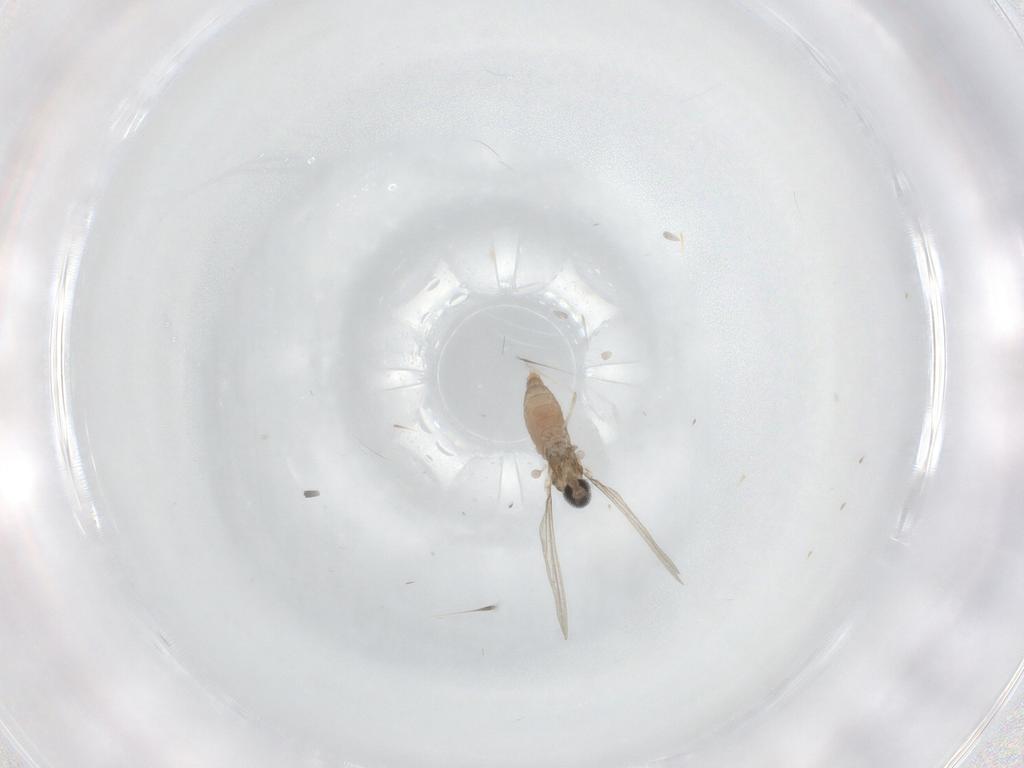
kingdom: Animalia
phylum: Arthropoda
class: Insecta
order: Diptera
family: Cecidomyiidae
